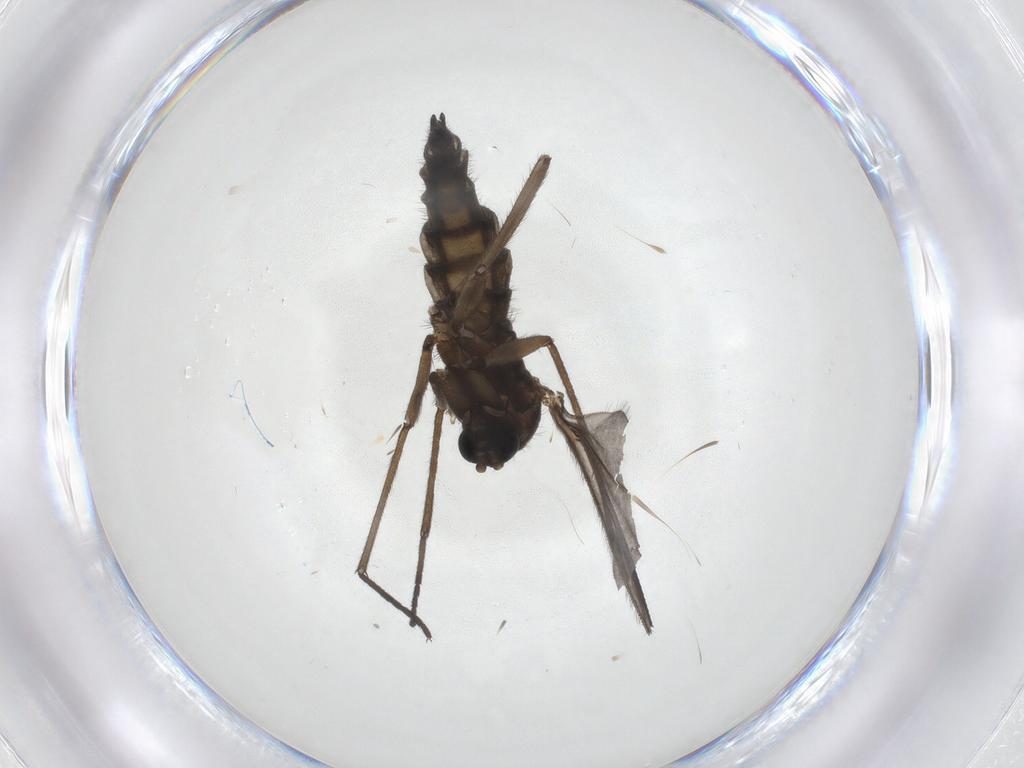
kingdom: Animalia
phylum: Arthropoda
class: Insecta
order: Diptera
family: Sciaridae
